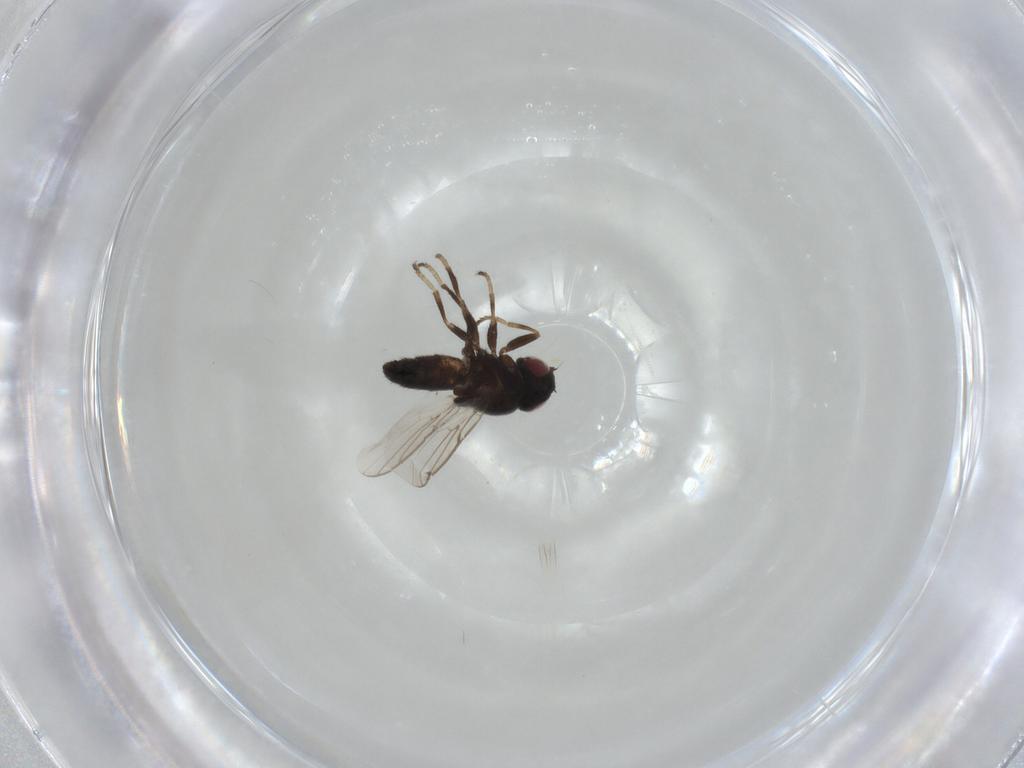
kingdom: Animalia
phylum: Arthropoda
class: Insecta
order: Diptera
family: Chloropidae
